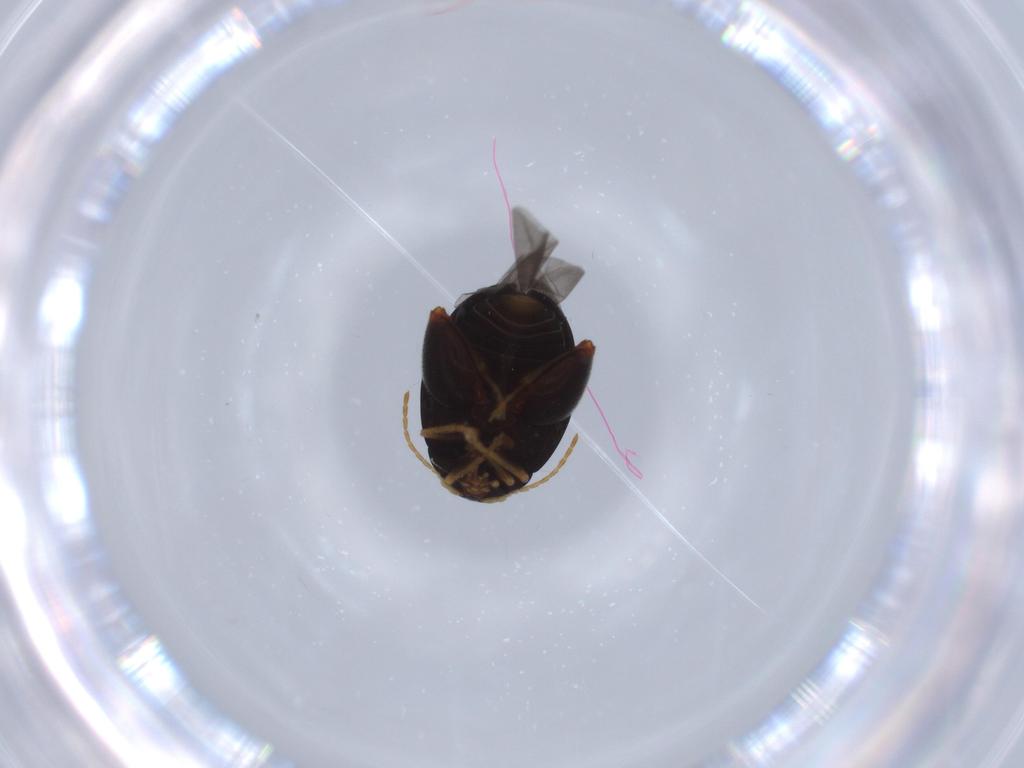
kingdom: Animalia
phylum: Arthropoda
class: Insecta
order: Coleoptera
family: Chrysomelidae
